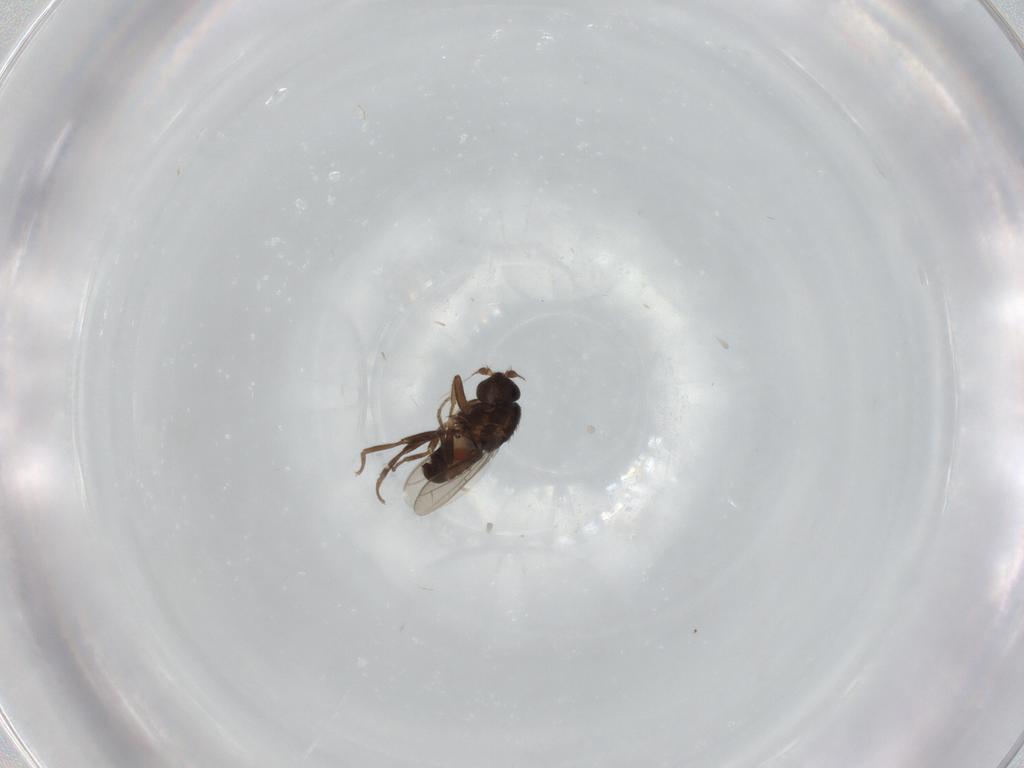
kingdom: Animalia
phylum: Arthropoda
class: Insecta
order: Diptera
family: Sphaeroceridae
